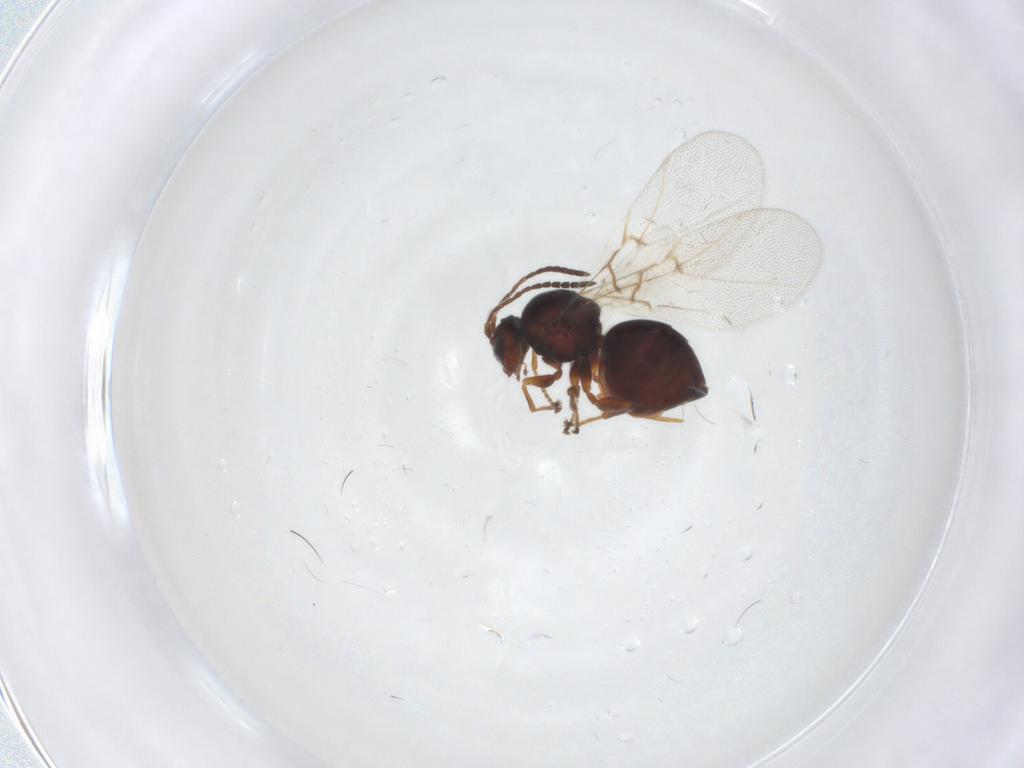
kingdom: Animalia
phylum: Arthropoda
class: Insecta
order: Hymenoptera
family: Cynipidae
